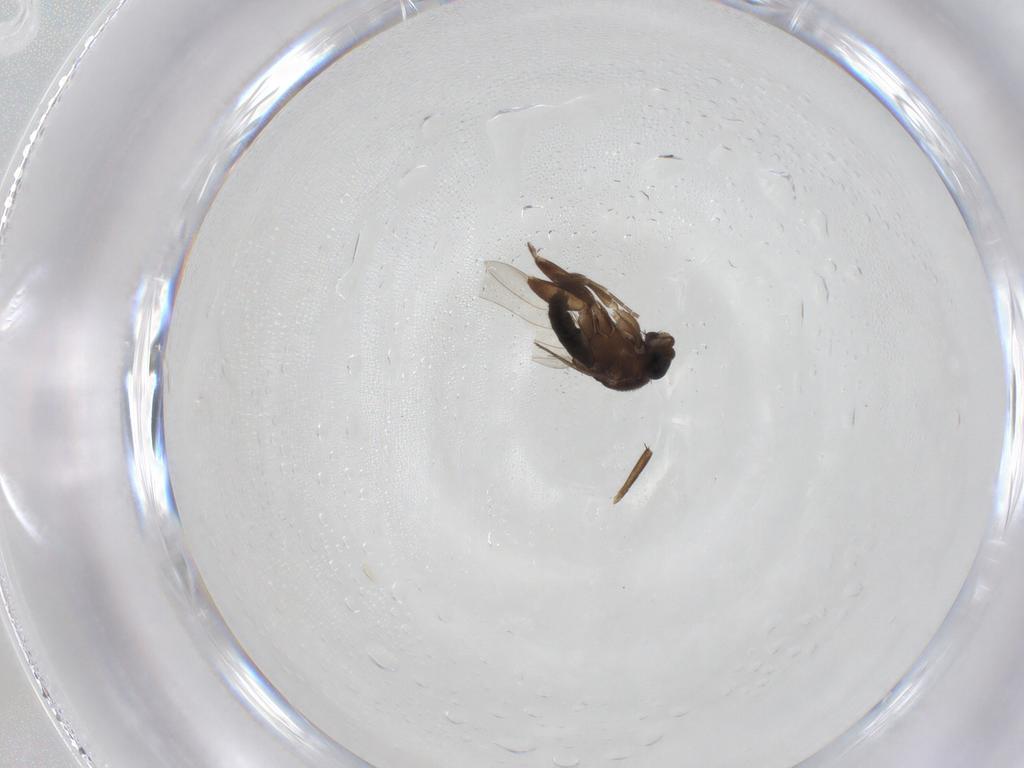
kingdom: Animalia
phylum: Arthropoda
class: Insecta
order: Diptera
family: Phoridae
